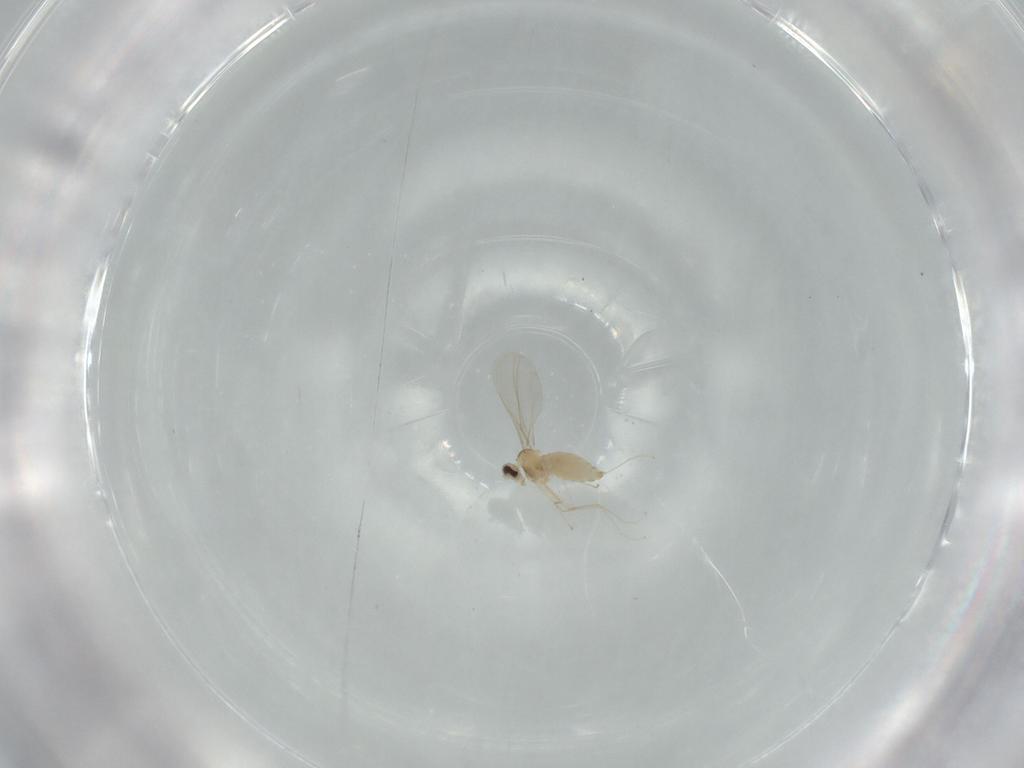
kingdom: Animalia
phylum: Arthropoda
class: Insecta
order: Diptera
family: Cecidomyiidae
